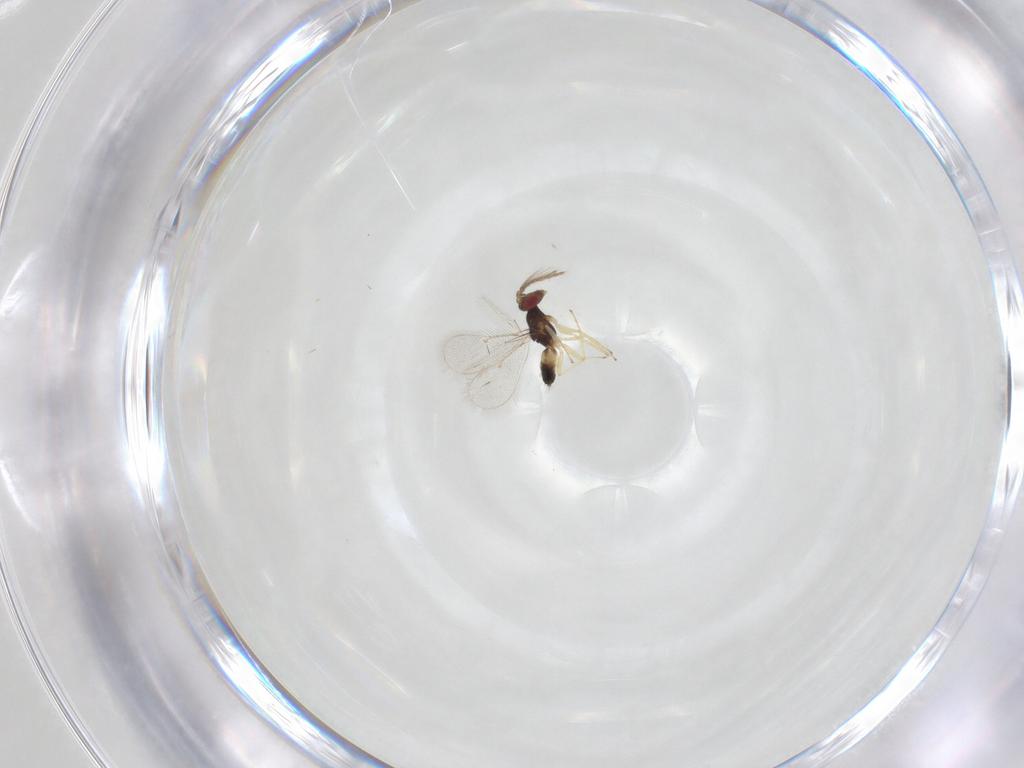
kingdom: Animalia
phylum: Arthropoda
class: Insecta
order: Hymenoptera
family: Eulophidae
